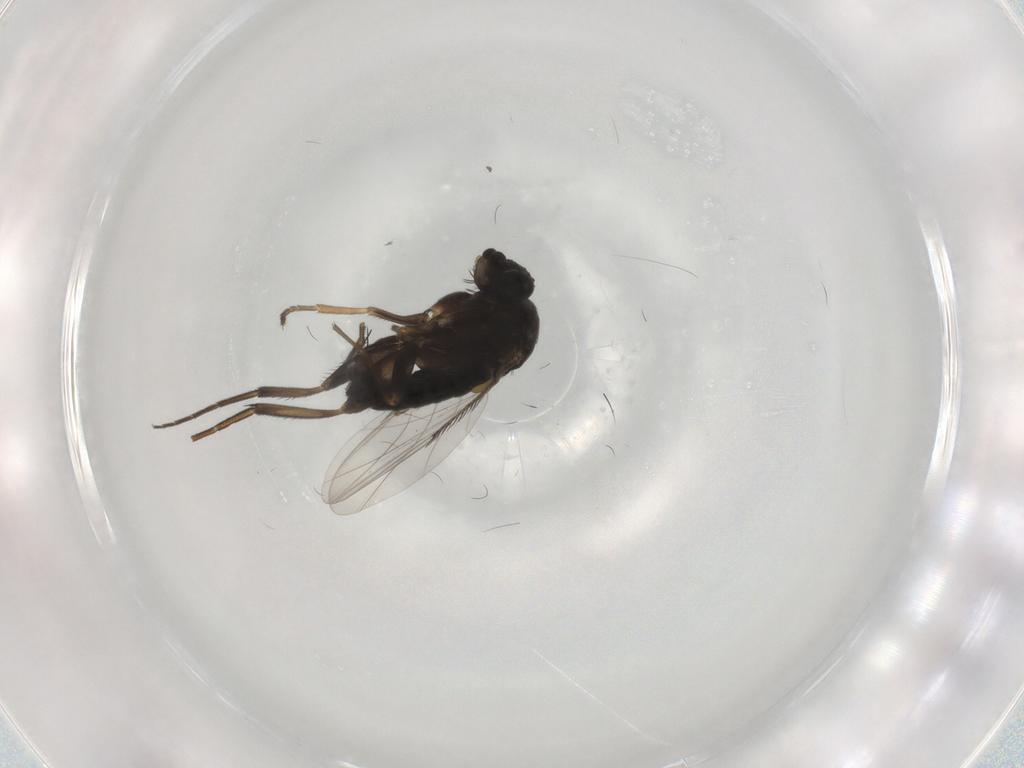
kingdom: Animalia
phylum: Arthropoda
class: Insecta
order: Diptera
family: Phoridae
